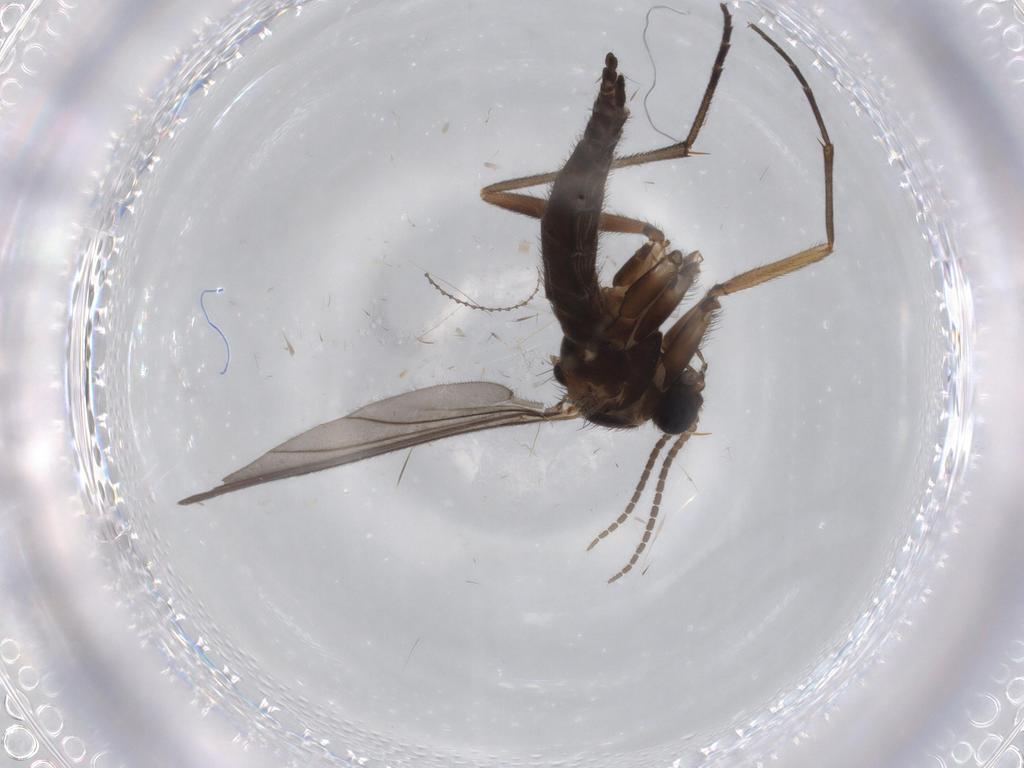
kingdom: Animalia
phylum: Arthropoda
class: Insecta
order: Diptera
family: Sciaridae
